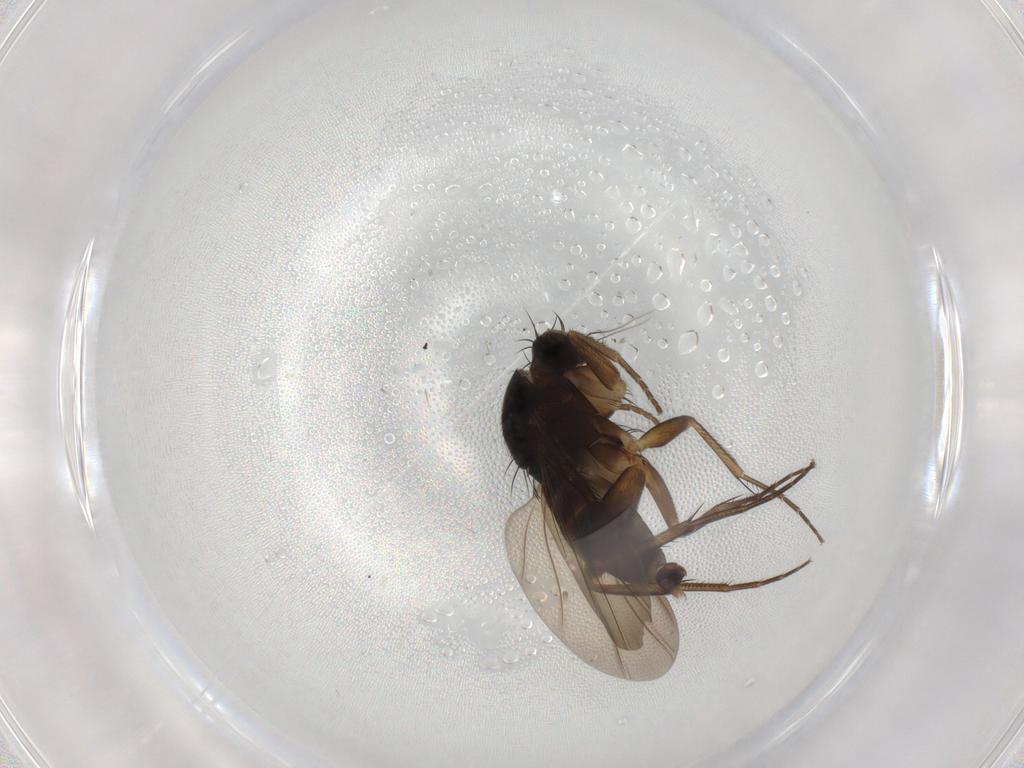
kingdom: Animalia
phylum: Arthropoda
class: Insecta
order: Diptera
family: Phoridae
